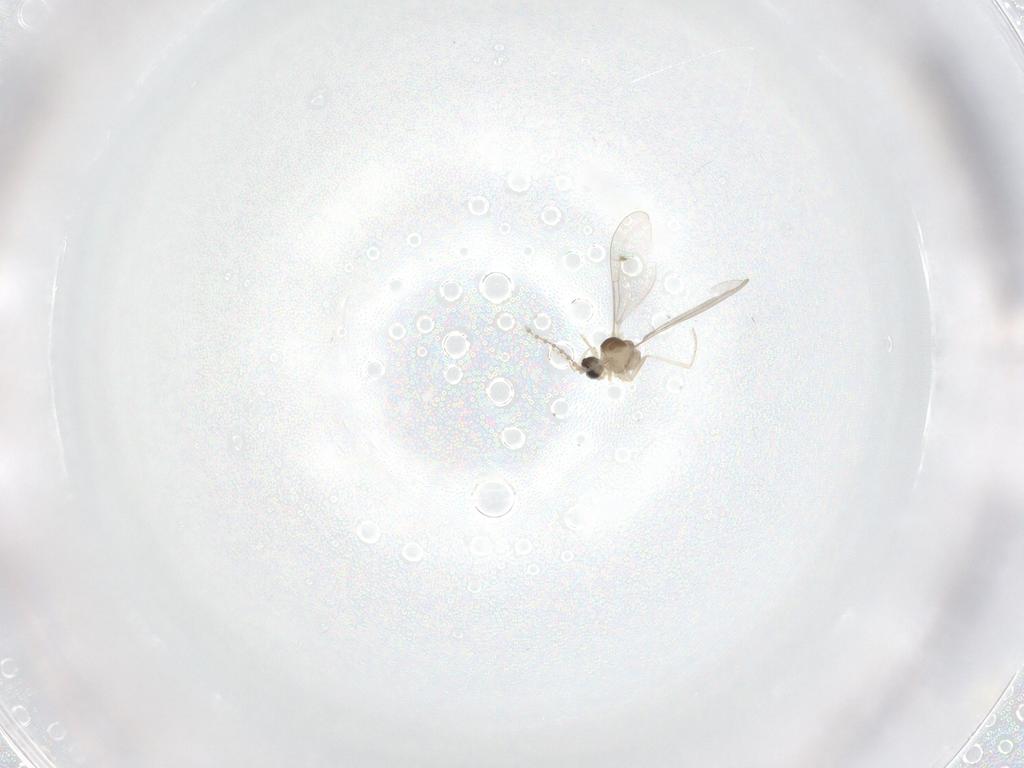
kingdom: Animalia
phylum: Arthropoda
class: Insecta
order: Diptera
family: Cecidomyiidae
